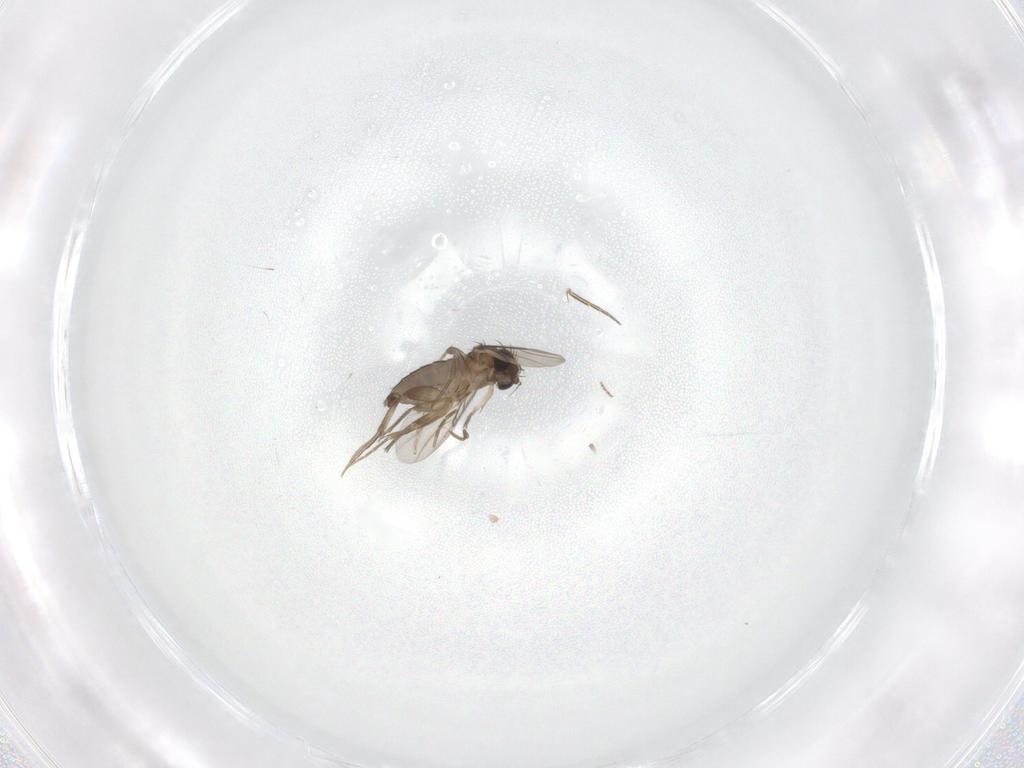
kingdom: Animalia
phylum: Arthropoda
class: Insecta
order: Diptera
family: Phoridae
